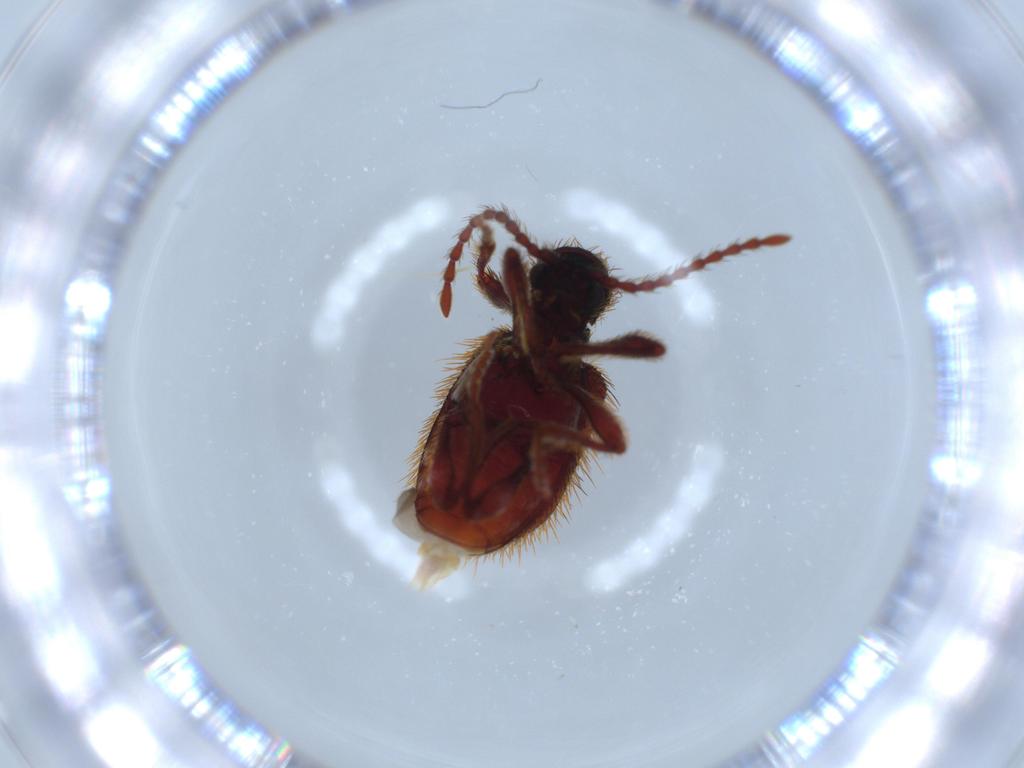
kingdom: Animalia
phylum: Arthropoda
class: Insecta
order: Coleoptera
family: Ptinidae
